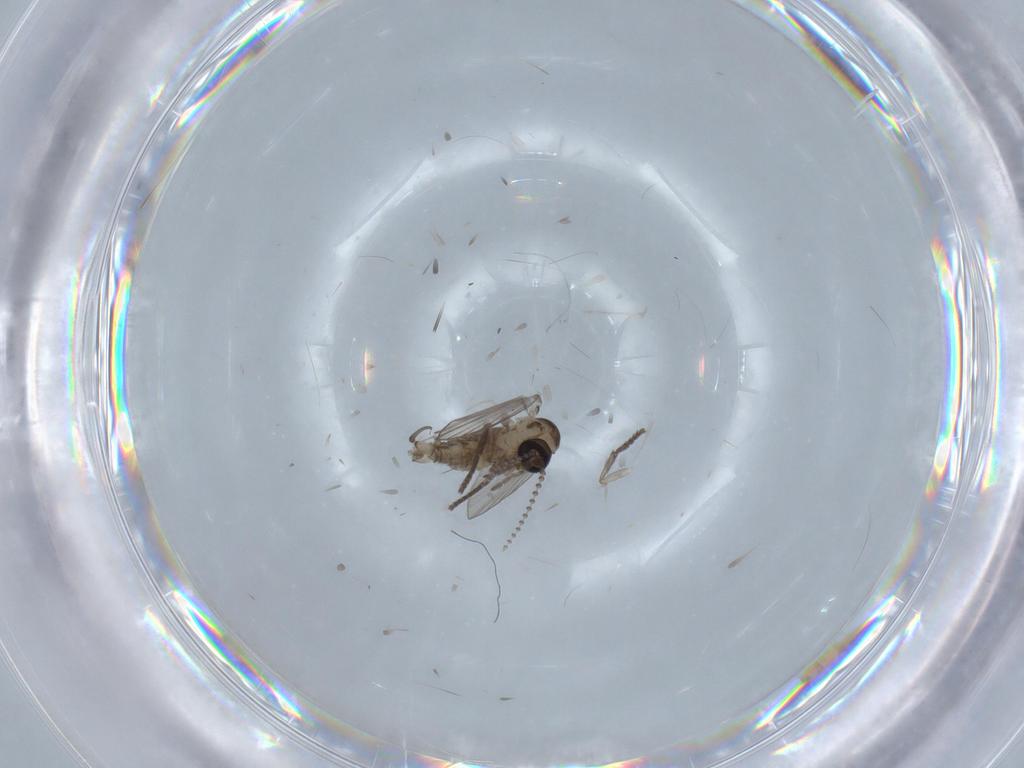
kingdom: Animalia
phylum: Arthropoda
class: Insecta
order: Diptera
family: Psychodidae
